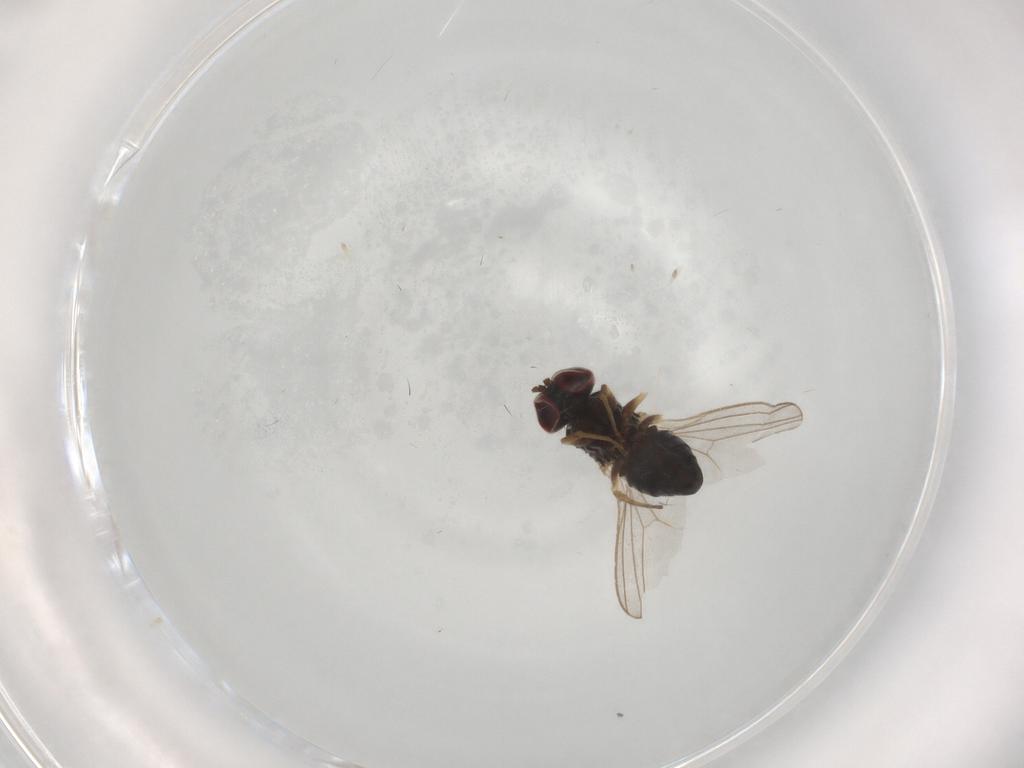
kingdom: Animalia
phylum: Arthropoda
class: Insecta
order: Diptera
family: Dolichopodidae
